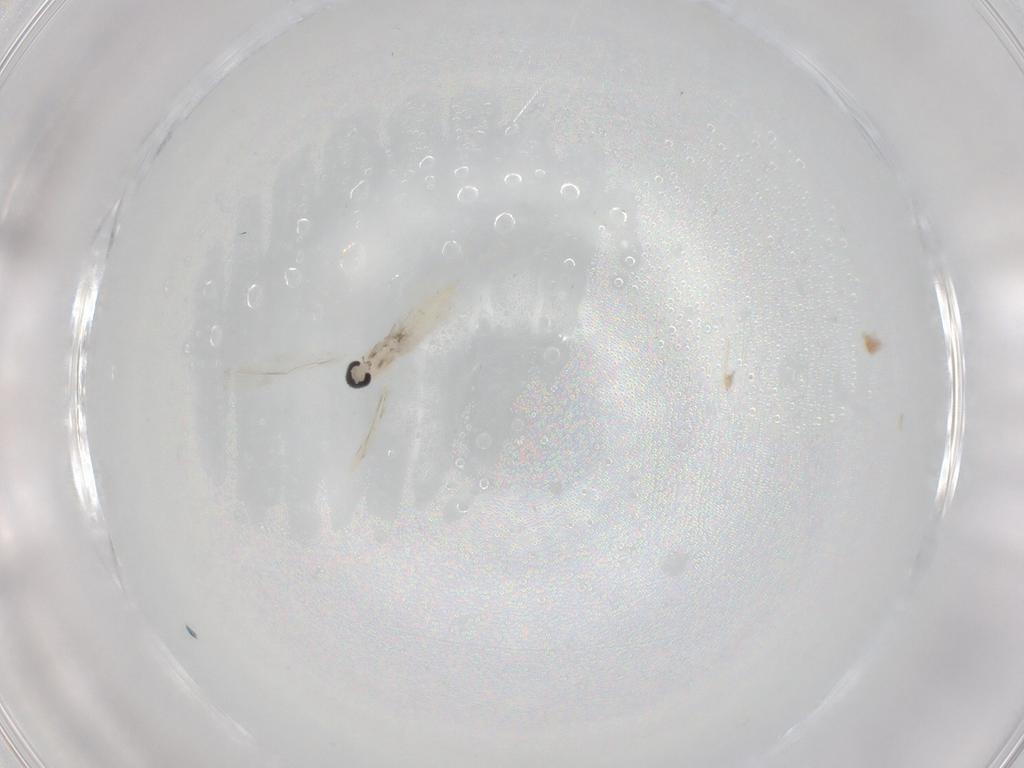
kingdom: Animalia
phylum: Arthropoda
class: Insecta
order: Diptera
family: Cecidomyiidae
